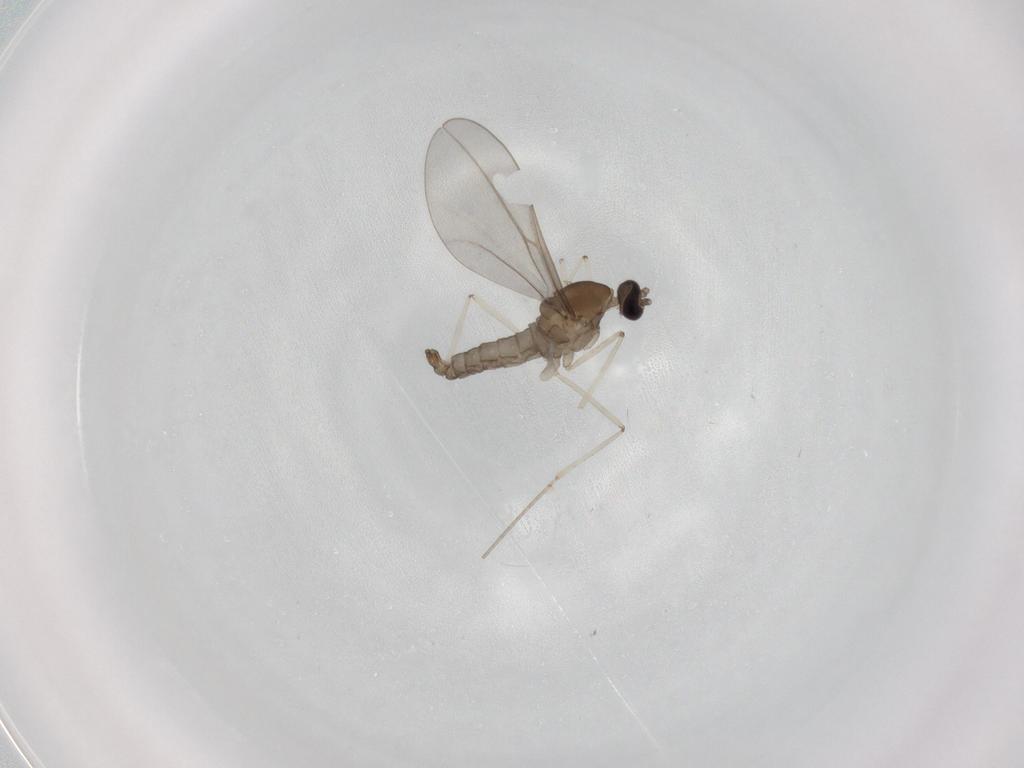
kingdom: Animalia
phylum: Arthropoda
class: Insecta
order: Diptera
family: Cecidomyiidae
